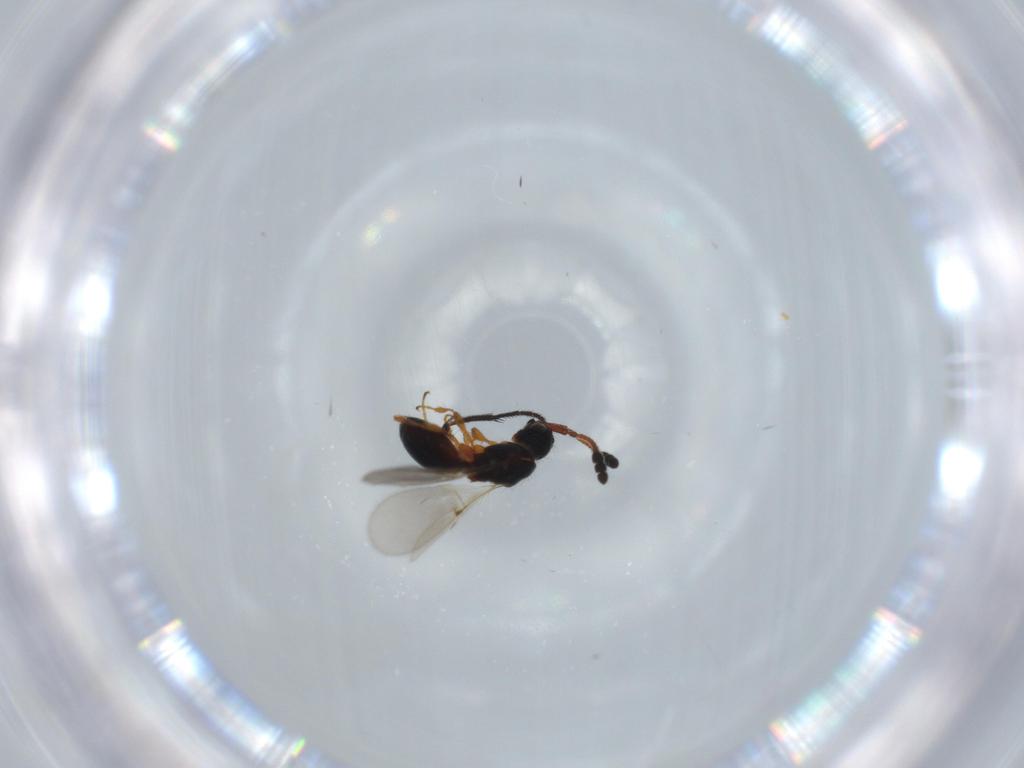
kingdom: Animalia
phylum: Arthropoda
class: Insecta
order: Hymenoptera
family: Diapriidae
